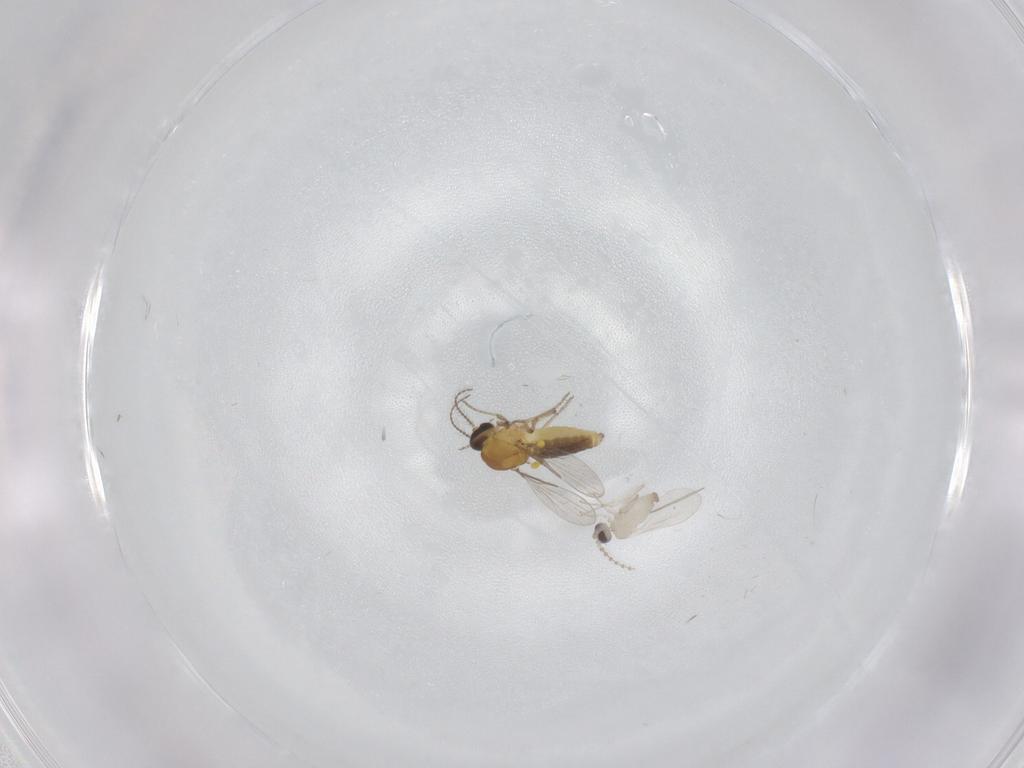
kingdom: Animalia
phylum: Arthropoda
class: Insecta
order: Diptera
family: Ceratopogonidae
